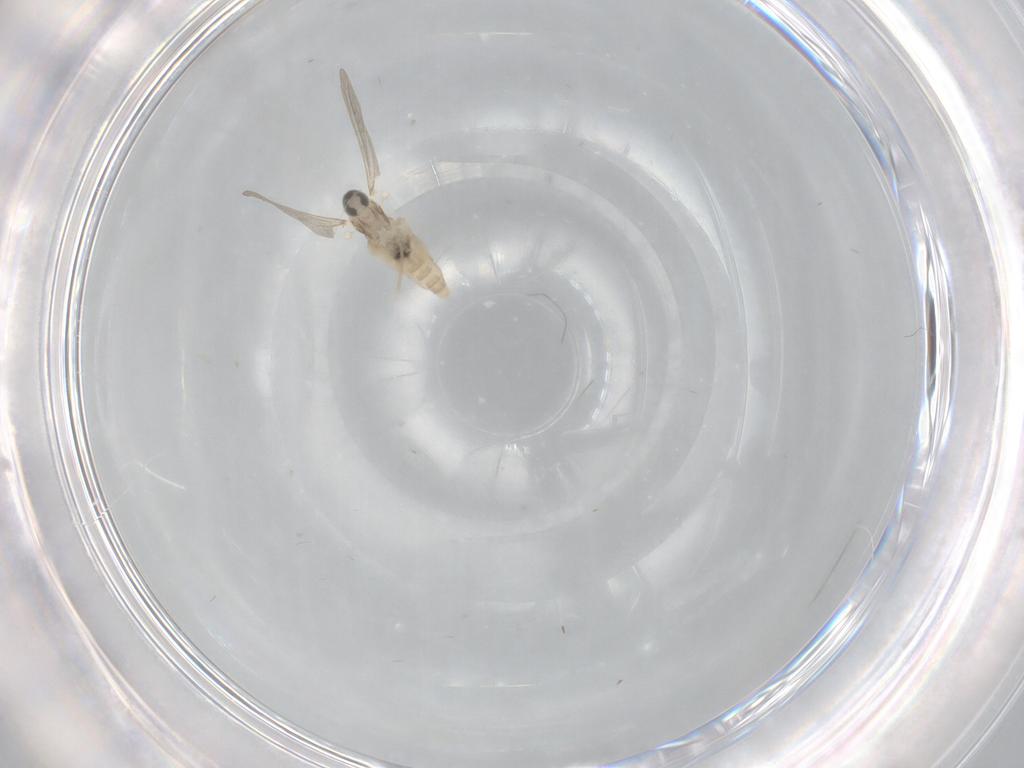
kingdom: Animalia
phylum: Arthropoda
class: Insecta
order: Diptera
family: Cecidomyiidae
